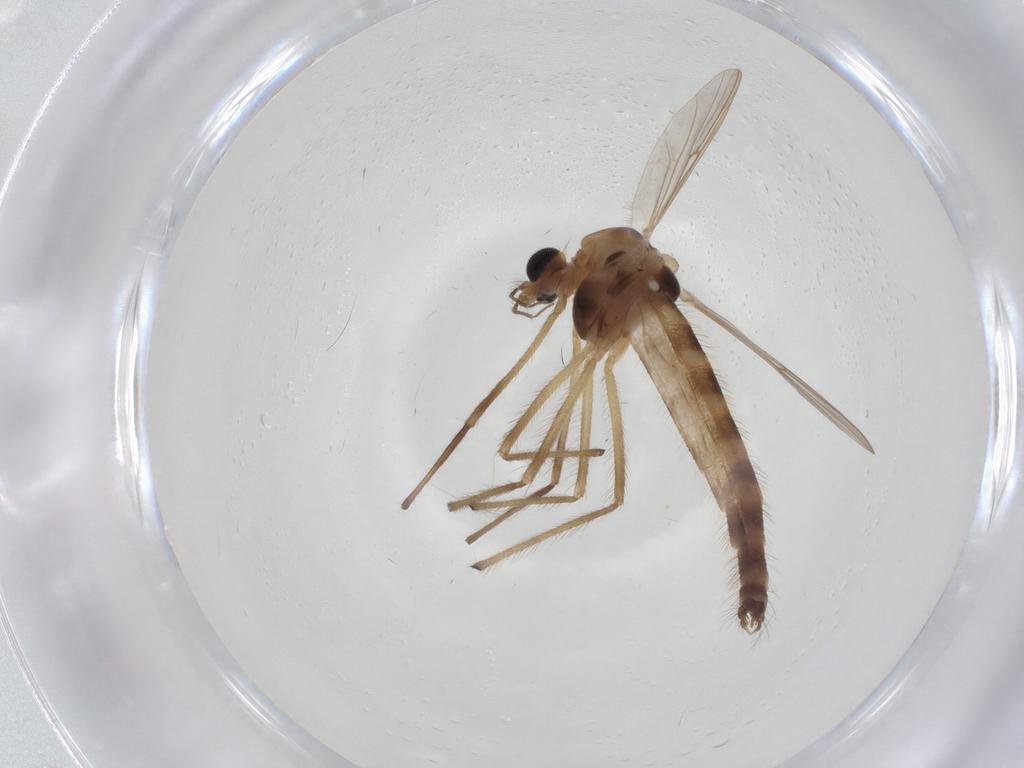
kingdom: Animalia
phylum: Arthropoda
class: Insecta
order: Diptera
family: Chironomidae
